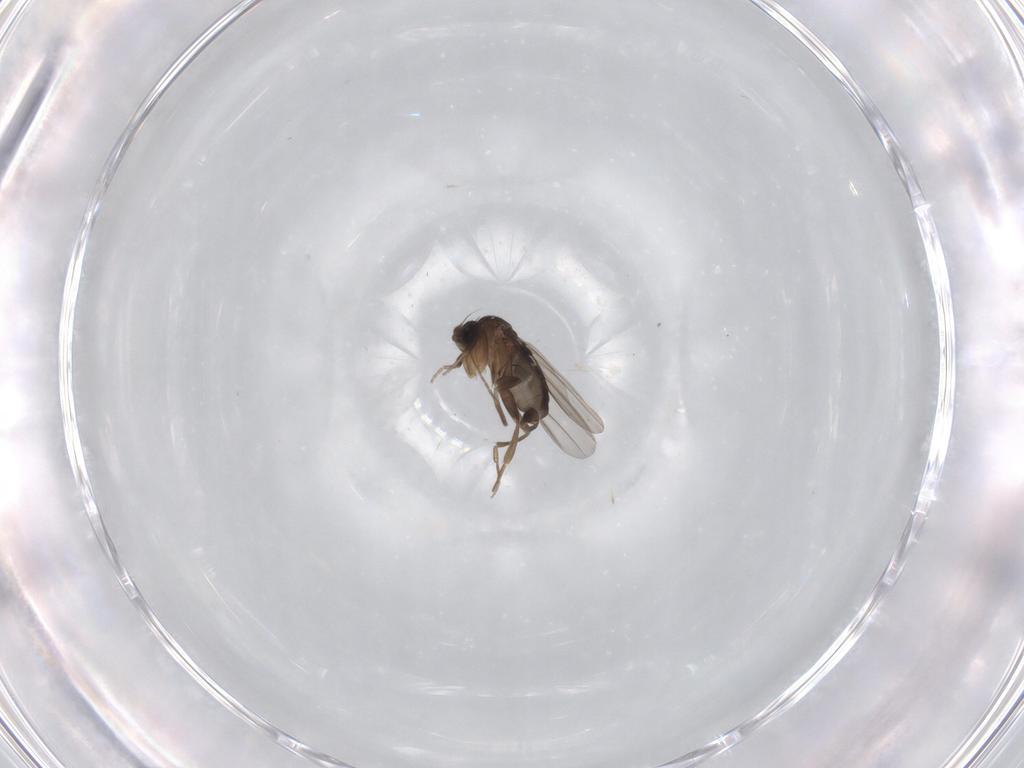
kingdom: Animalia
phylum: Arthropoda
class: Insecta
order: Diptera
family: Phoridae
